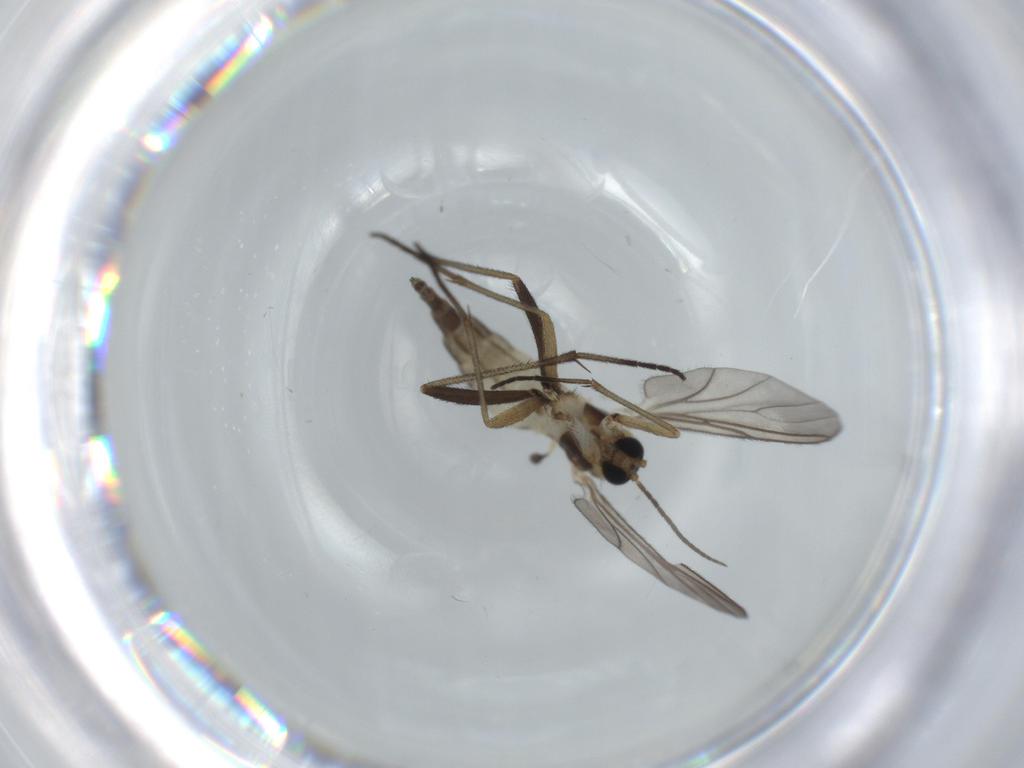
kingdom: Animalia
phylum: Arthropoda
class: Insecta
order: Diptera
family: Sciaridae
